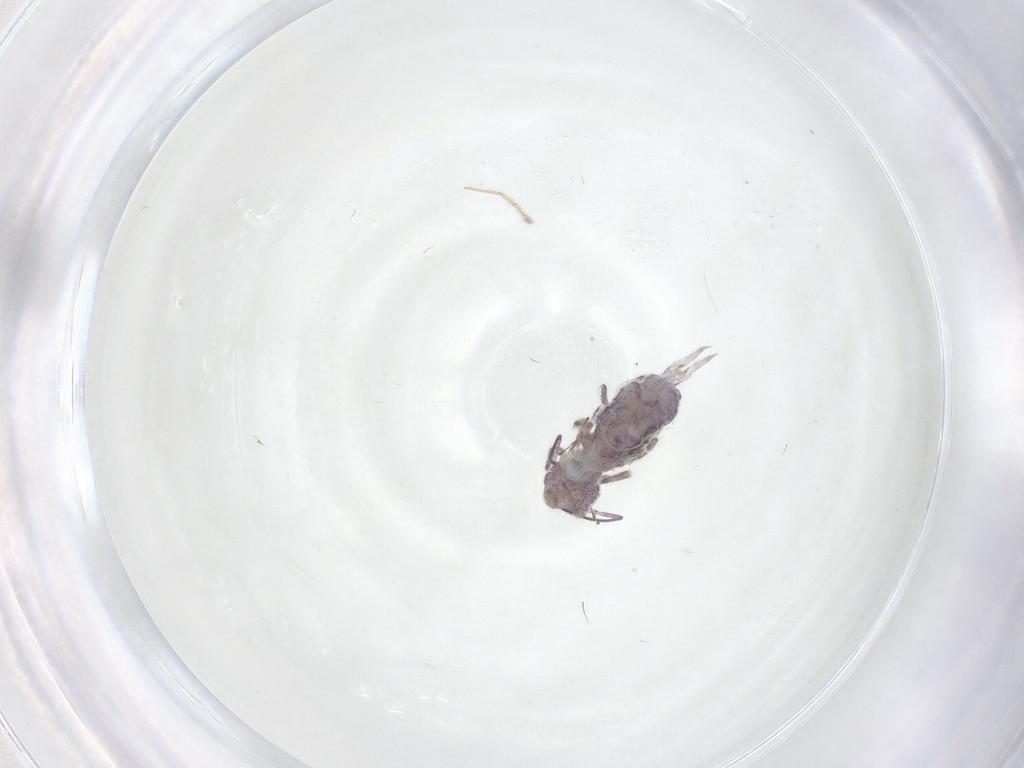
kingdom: Animalia
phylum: Arthropoda
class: Collembola
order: Symphypleona
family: Sminthuridae
